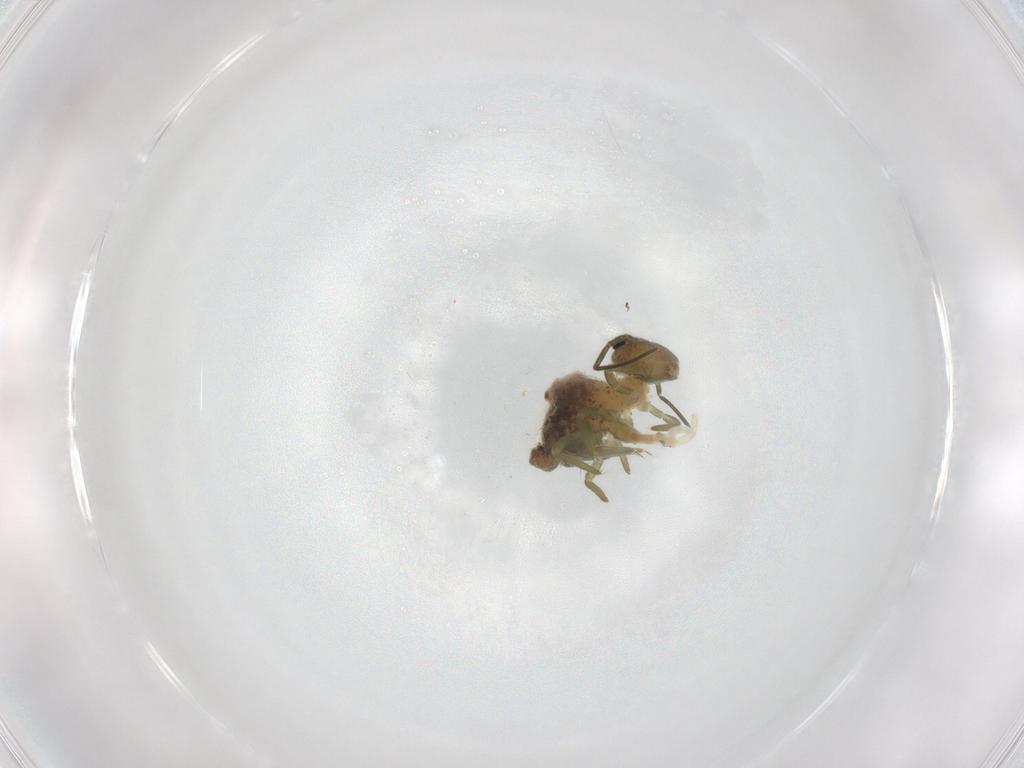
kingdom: Animalia
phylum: Arthropoda
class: Collembola
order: Symphypleona
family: Sminthuridae
